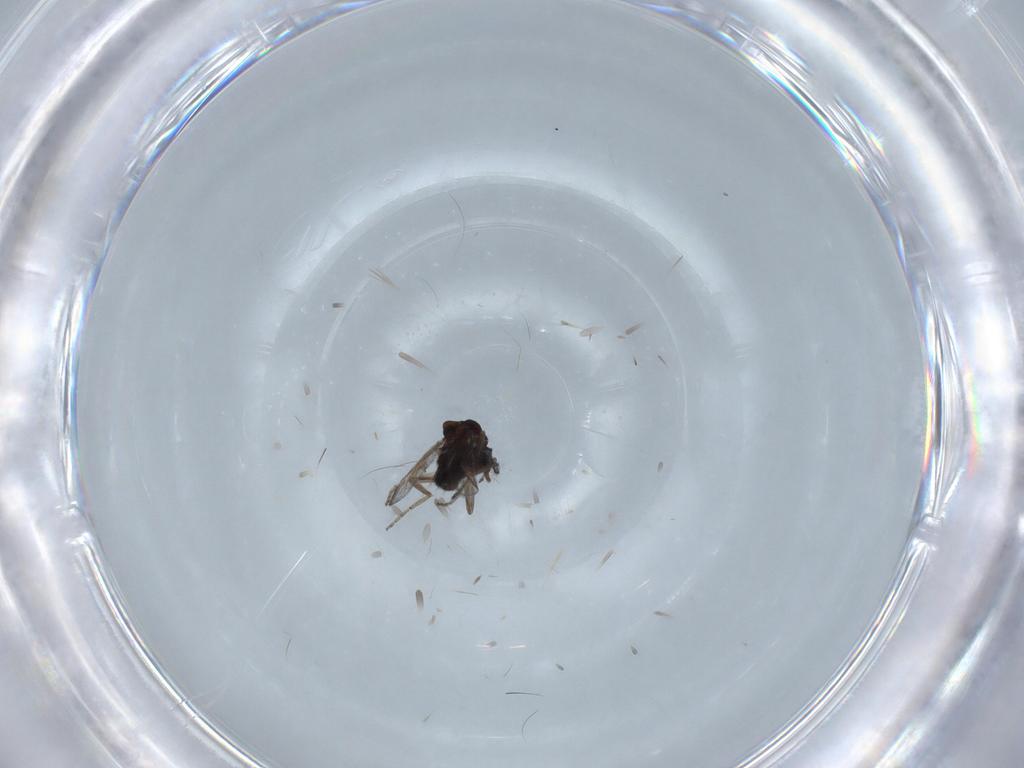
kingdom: Animalia
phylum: Arthropoda
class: Insecta
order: Diptera
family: Ceratopogonidae
